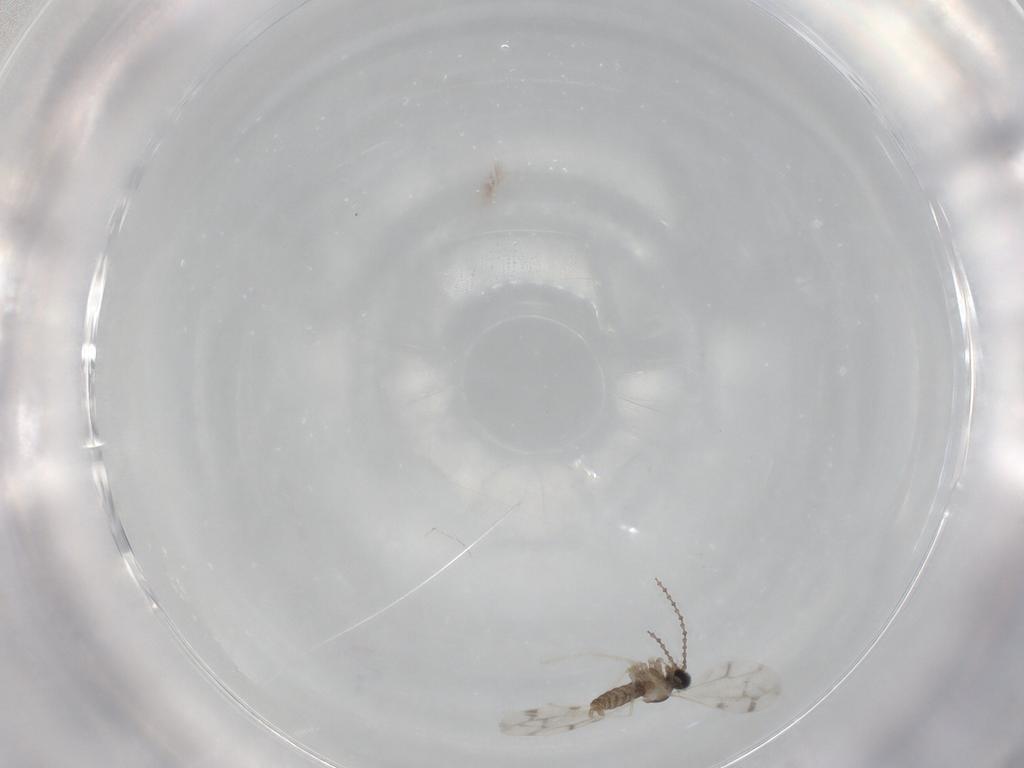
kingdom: Animalia
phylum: Arthropoda
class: Insecta
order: Diptera
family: Cecidomyiidae
